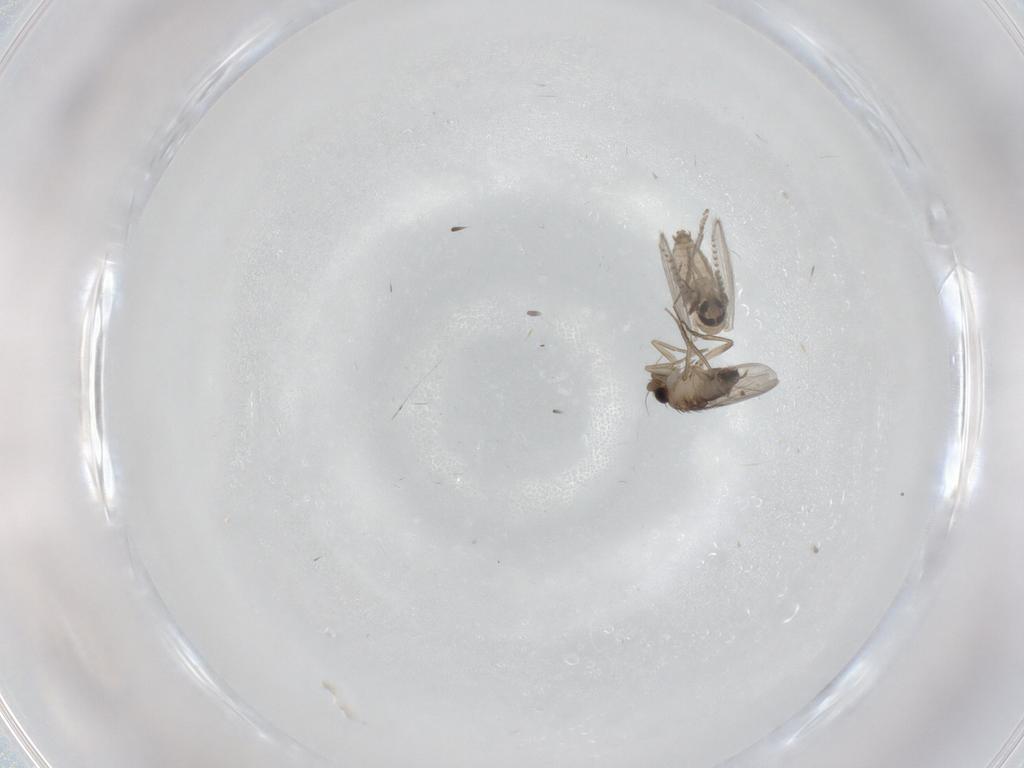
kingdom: Animalia
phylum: Arthropoda
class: Insecta
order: Diptera
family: Psychodidae
